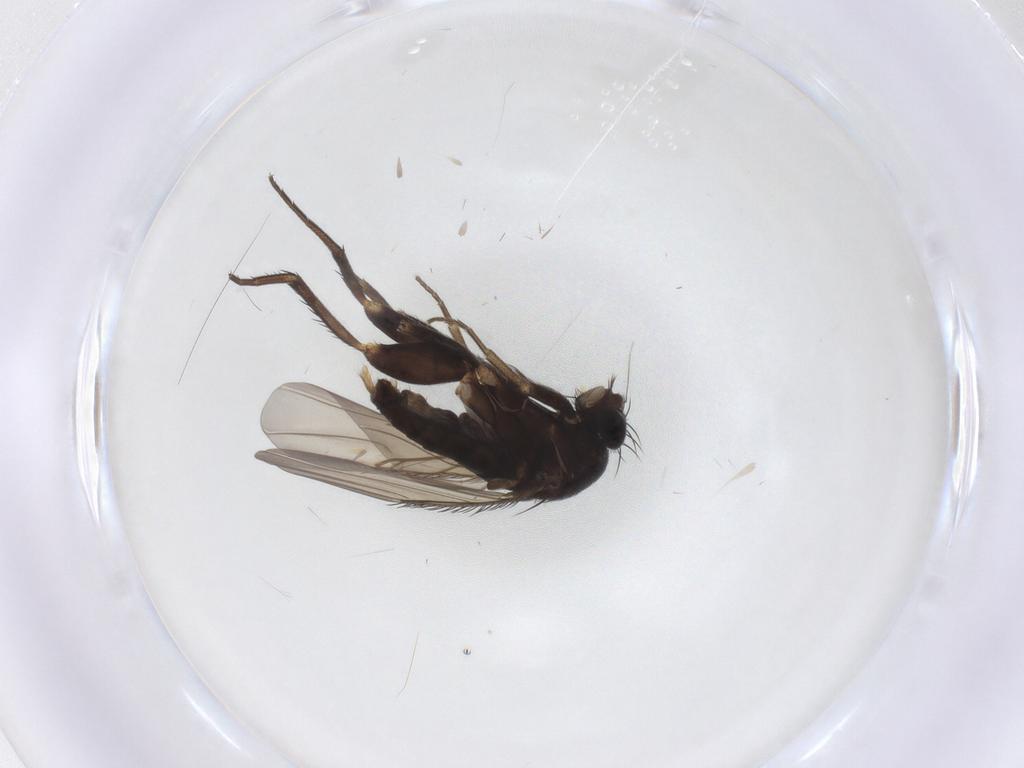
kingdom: Animalia
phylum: Arthropoda
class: Insecta
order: Diptera
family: Phoridae
